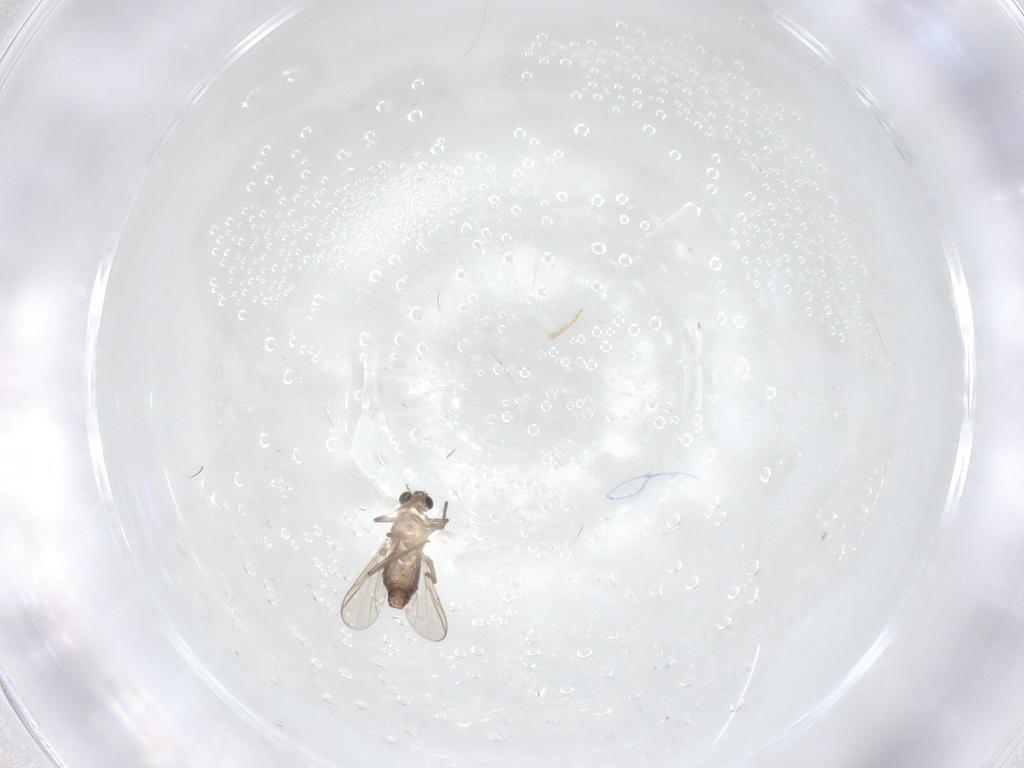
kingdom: Animalia
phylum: Arthropoda
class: Insecta
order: Diptera
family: Chironomidae
